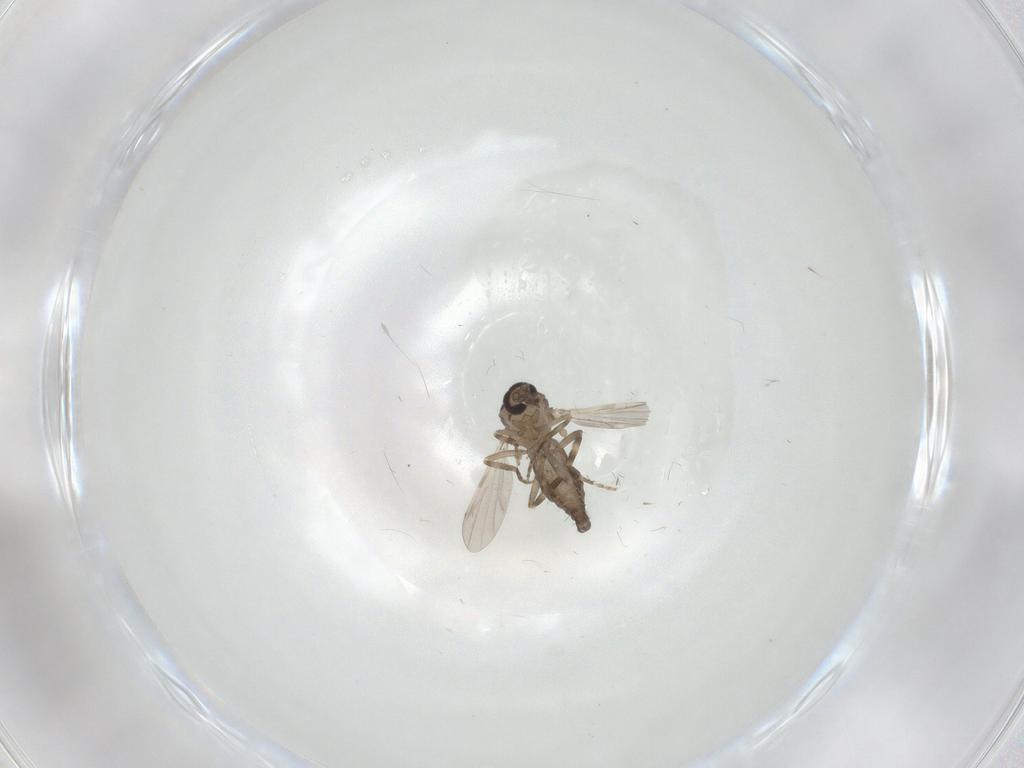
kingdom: Animalia
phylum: Arthropoda
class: Insecta
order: Diptera
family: Ceratopogonidae
